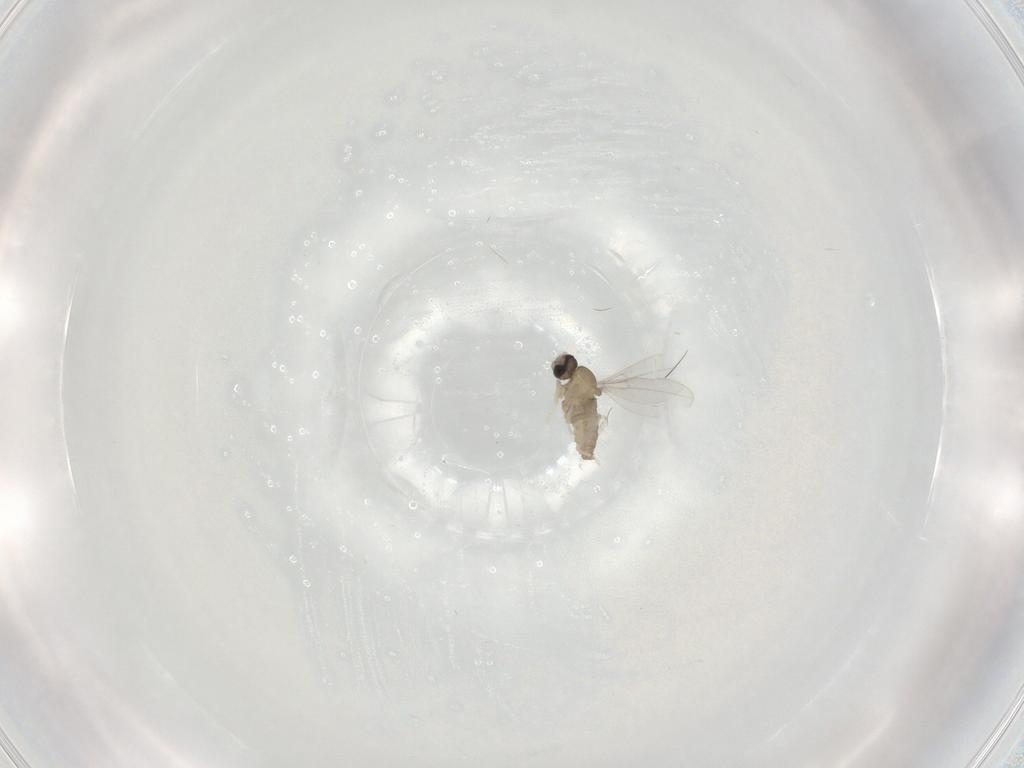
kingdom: Animalia
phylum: Arthropoda
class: Insecta
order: Diptera
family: Cecidomyiidae
